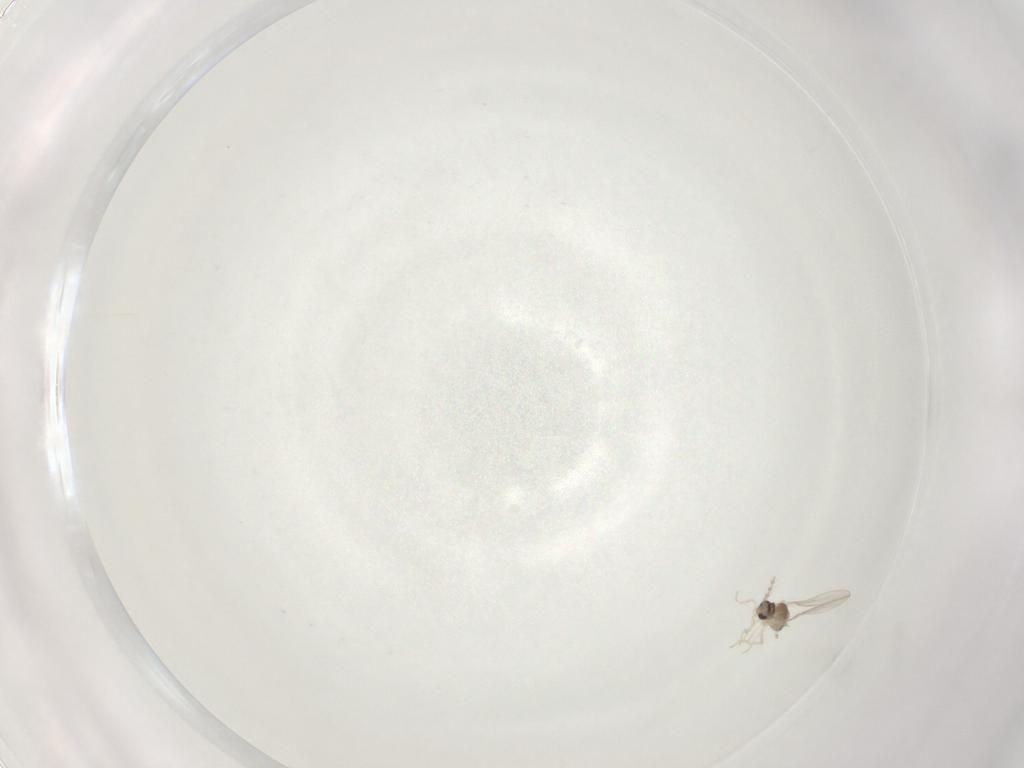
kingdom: Animalia
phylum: Arthropoda
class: Insecta
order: Diptera
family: Cecidomyiidae
